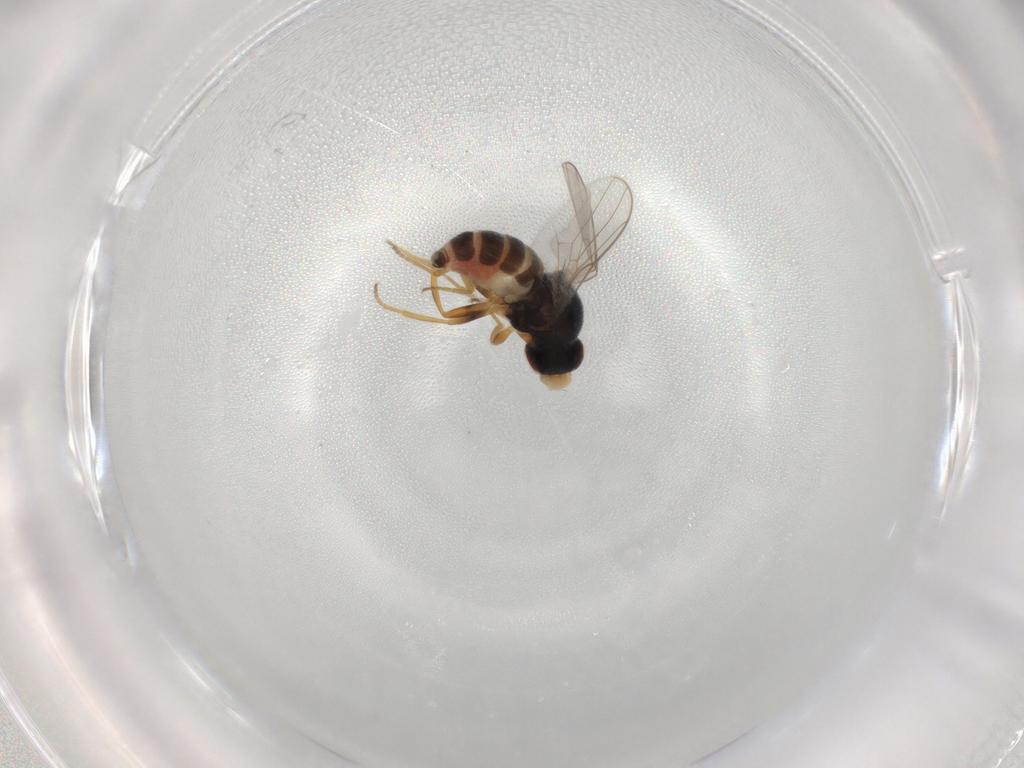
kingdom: Animalia
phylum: Arthropoda
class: Insecta
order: Diptera
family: Chloropidae
